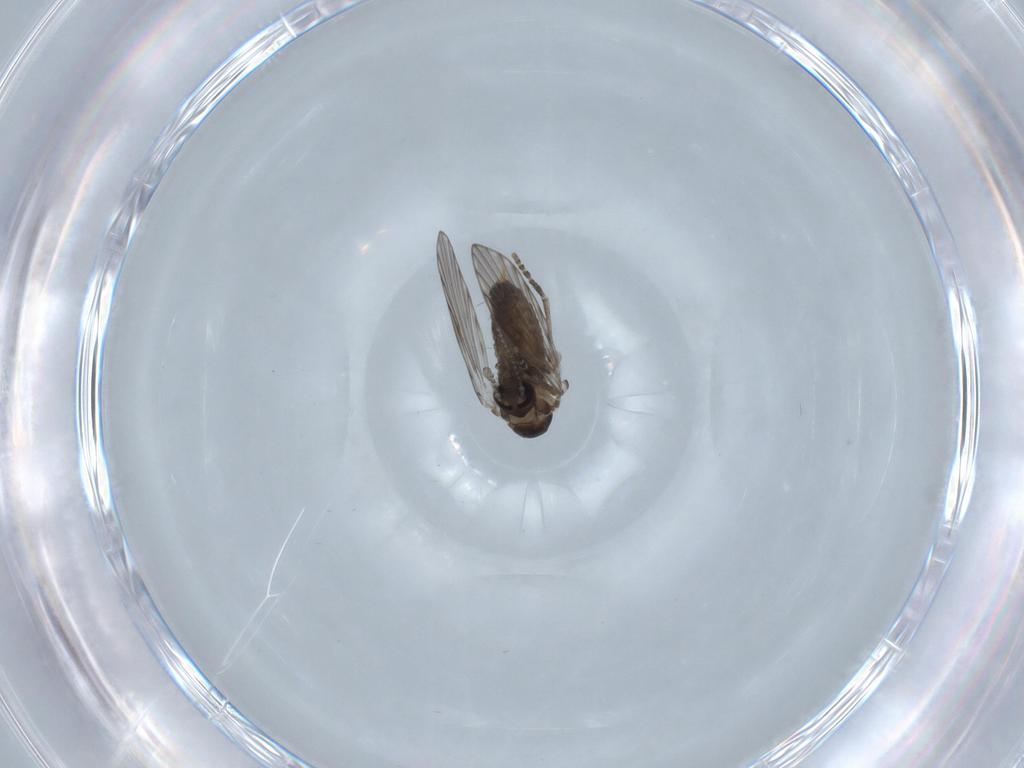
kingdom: Animalia
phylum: Arthropoda
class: Insecta
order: Diptera
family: Psychodidae
